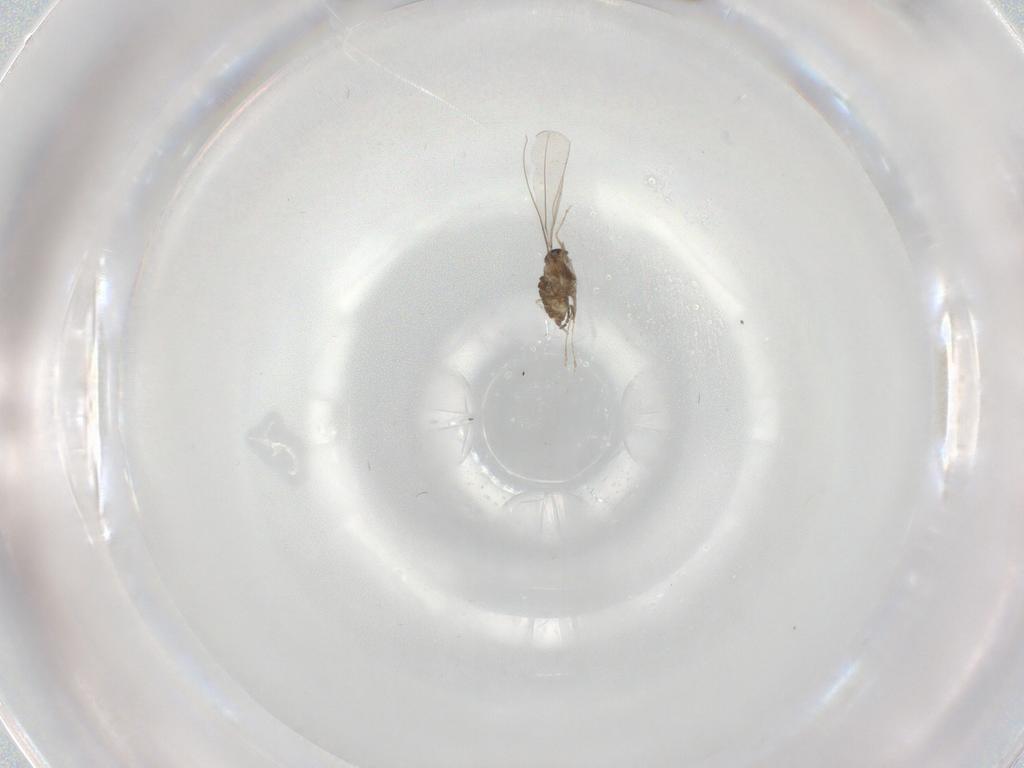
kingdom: Animalia
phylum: Arthropoda
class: Insecta
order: Diptera
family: Cecidomyiidae
